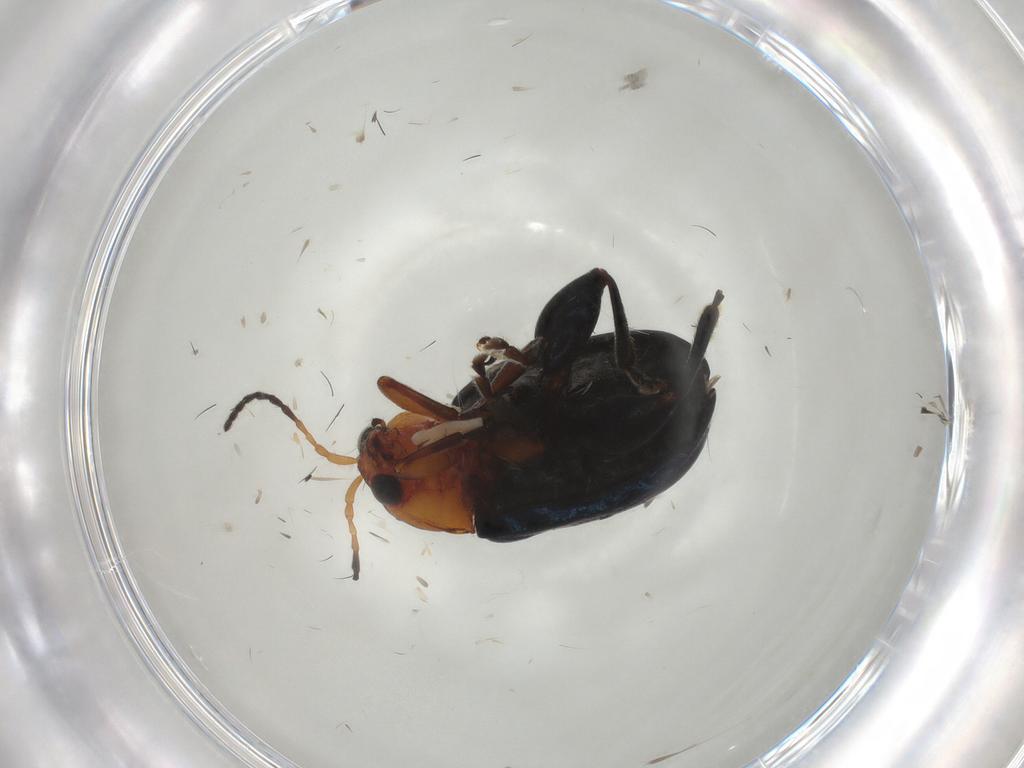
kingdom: Animalia
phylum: Arthropoda
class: Insecta
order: Coleoptera
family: Chrysomelidae
